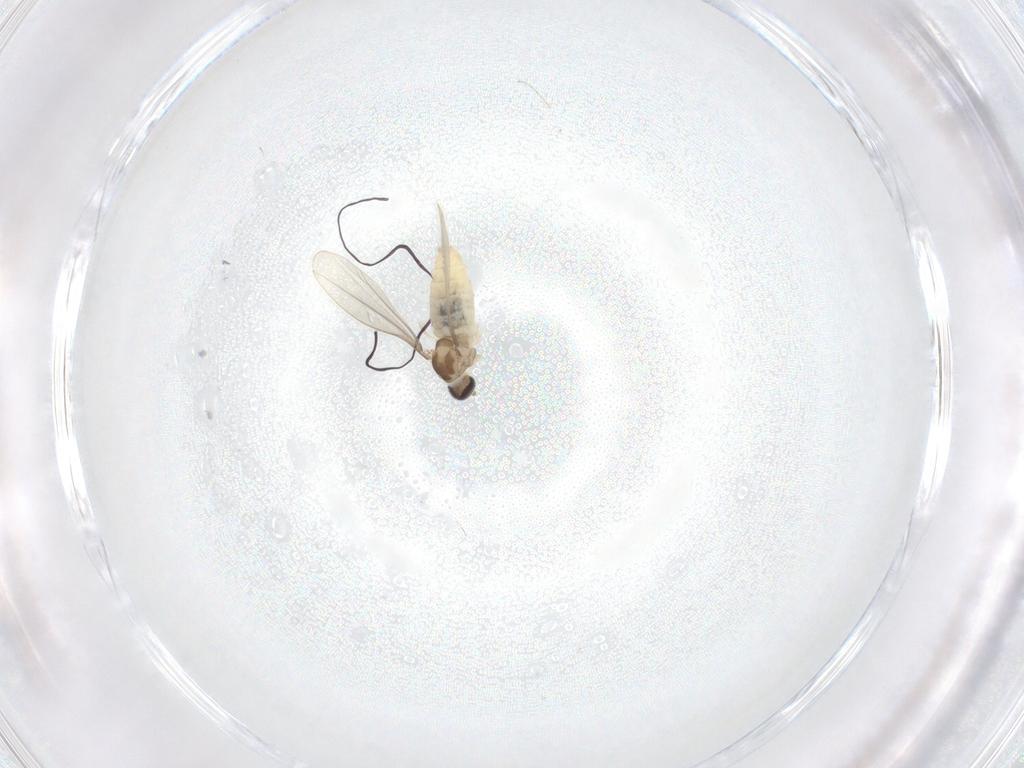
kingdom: Animalia
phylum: Arthropoda
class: Insecta
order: Diptera
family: Cecidomyiidae
